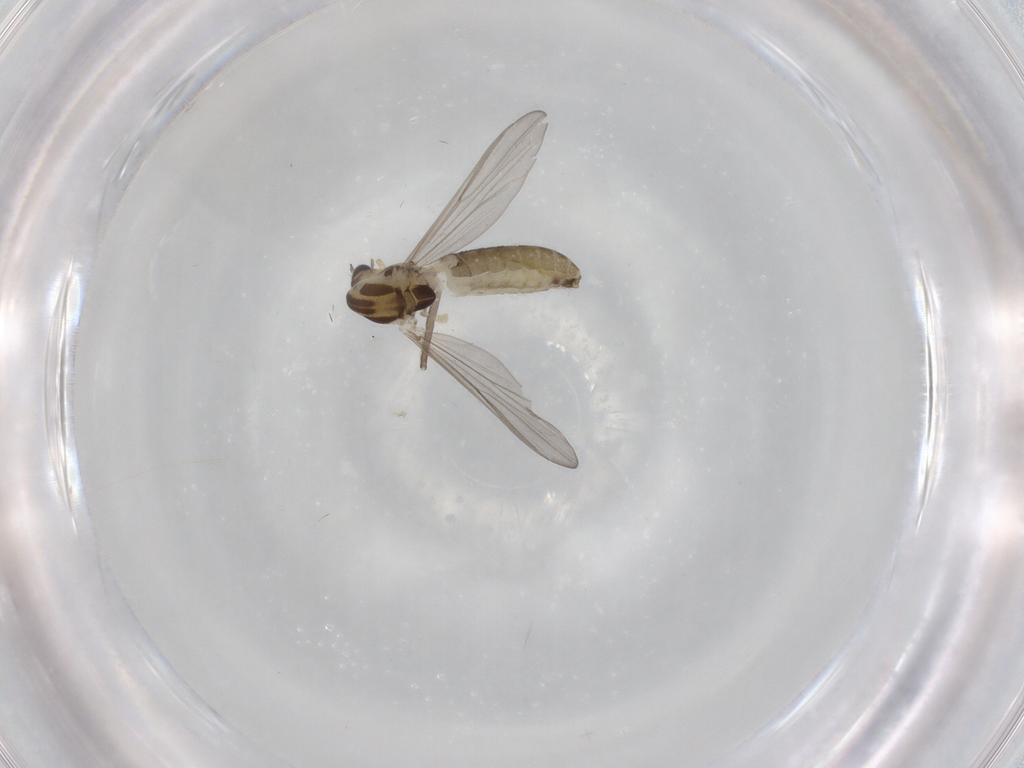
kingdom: Animalia
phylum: Arthropoda
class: Insecta
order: Diptera
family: Chironomidae
